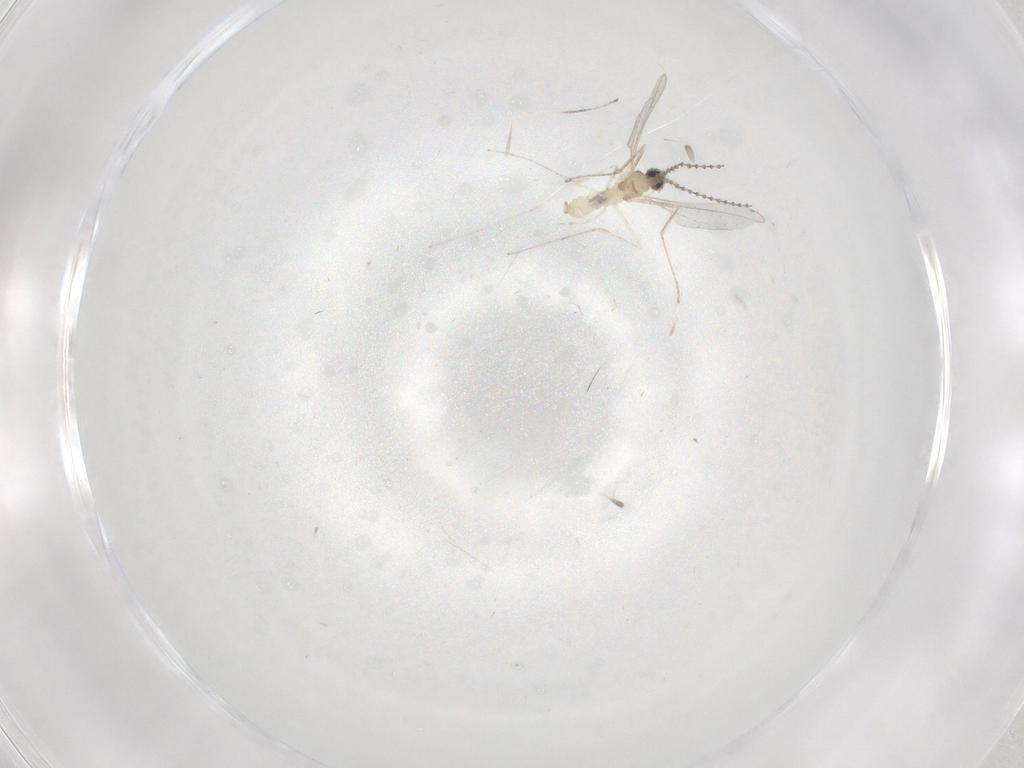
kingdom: Animalia
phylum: Arthropoda
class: Insecta
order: Diptera
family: Cecidomyiidae
